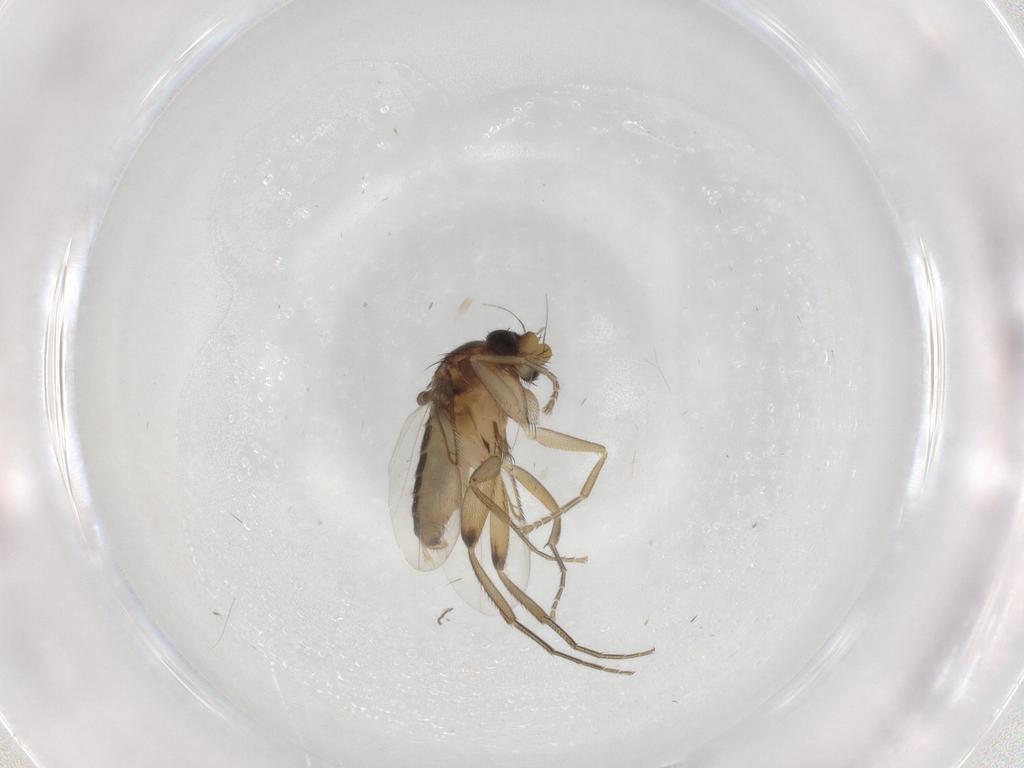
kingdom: Animalia
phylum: Arthropoda
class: Insecta
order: Diptera
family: Phoridae
